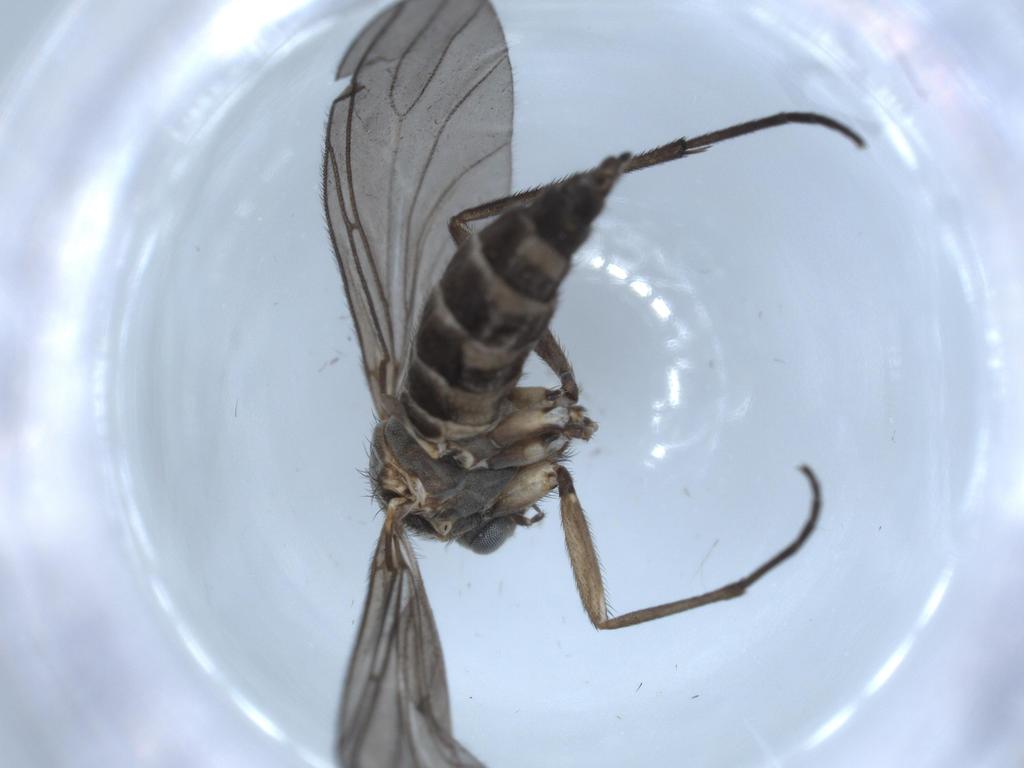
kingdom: Animalia
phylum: Arthropoda
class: Insecta
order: Diptera
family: Sciaridae
